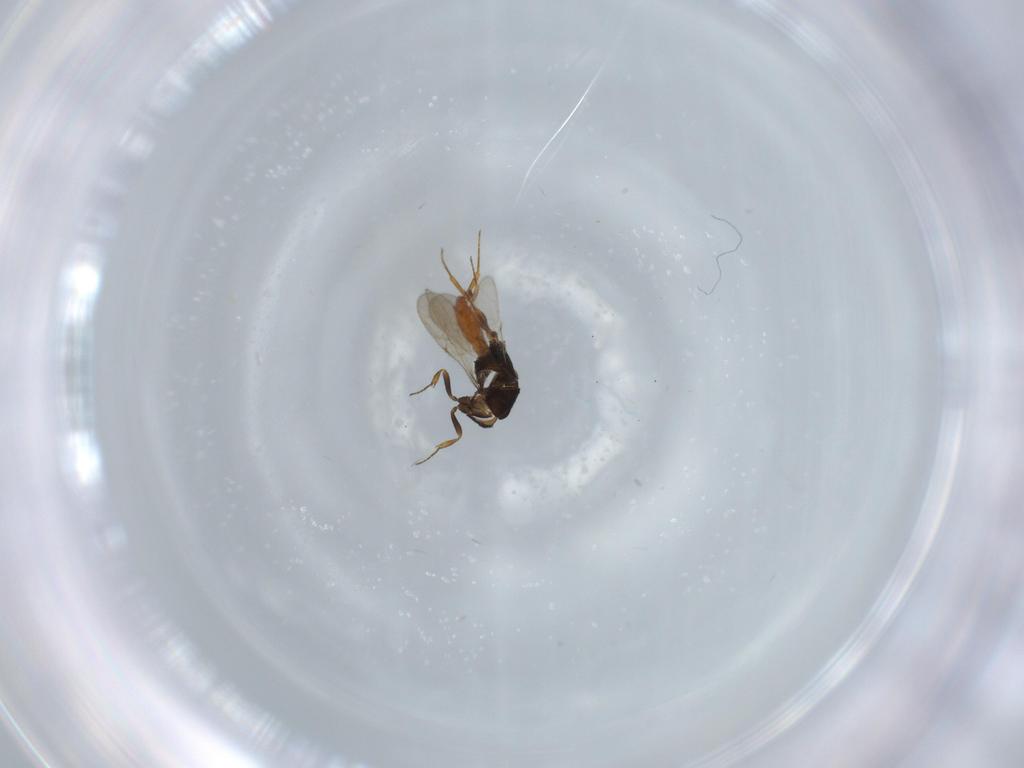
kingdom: Animalia
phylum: Arthropoda
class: Insecta
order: Hymenoptera
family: Scelionidae
